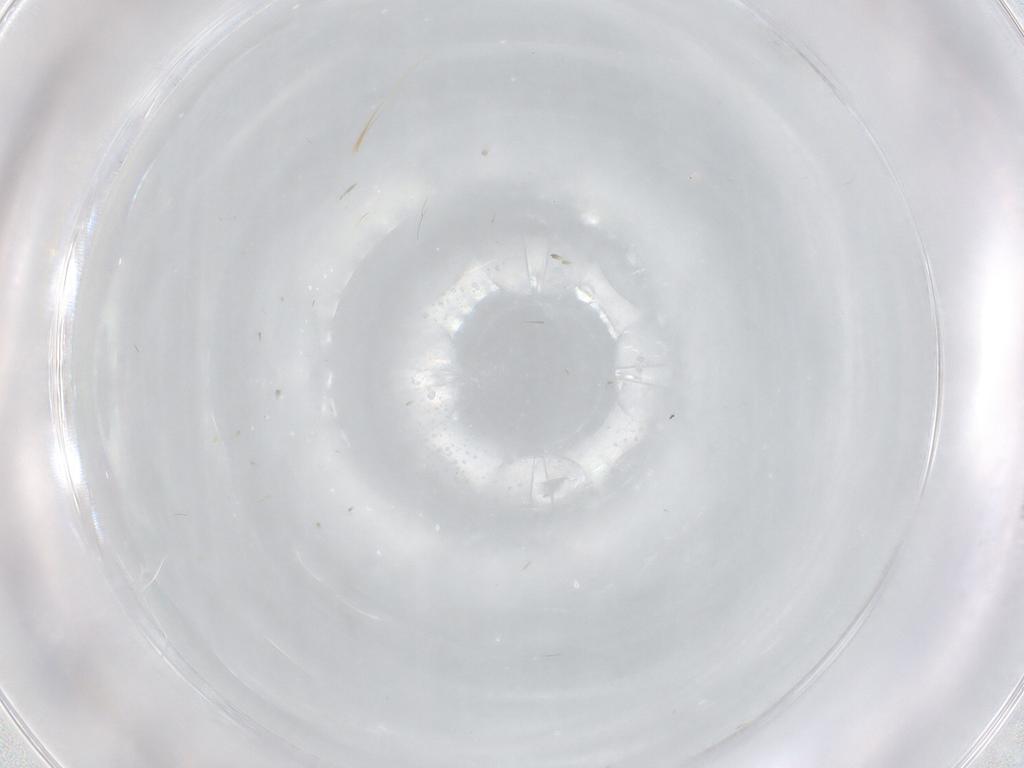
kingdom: Animalia
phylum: Arthropoda
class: Insecta
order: Diptera
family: Cecidomyiidae
